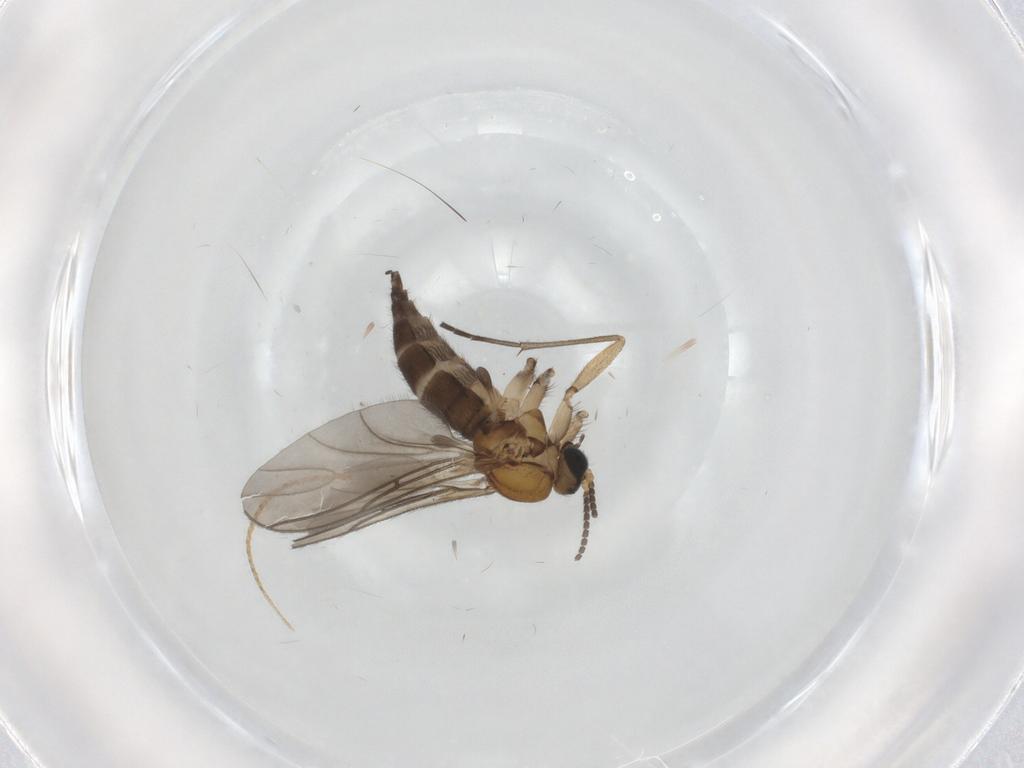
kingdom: Animalia
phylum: Arthropoda
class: Insecta
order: Diptera
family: Sciaridae
